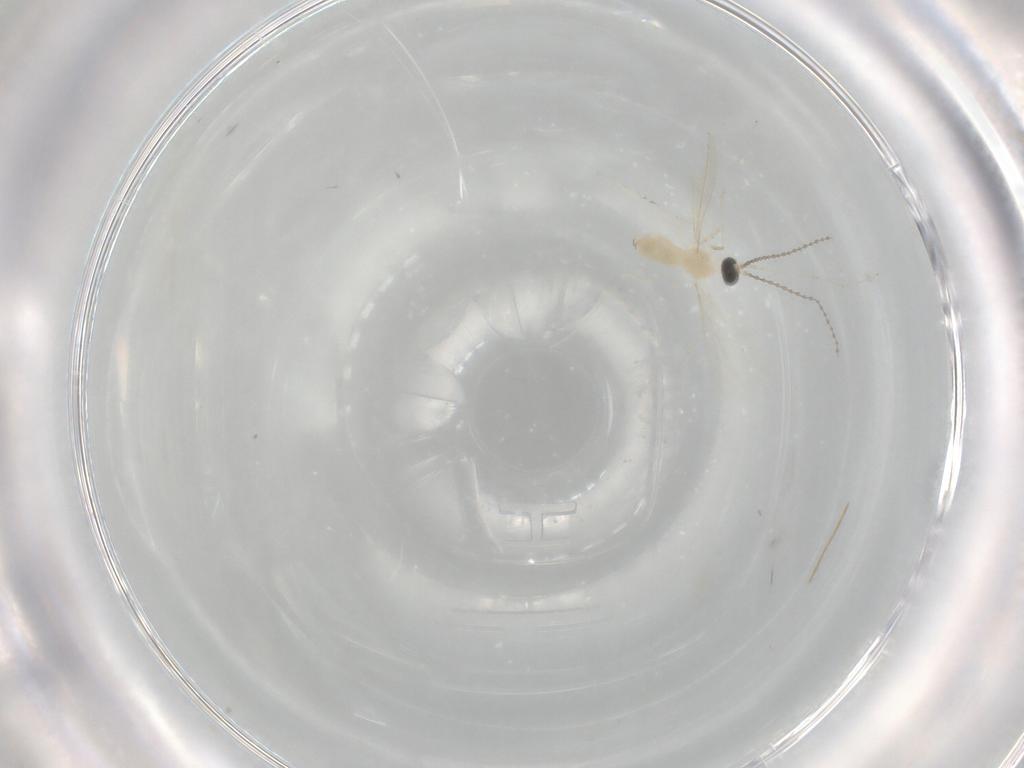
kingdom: Animalia
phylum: Arthropoda
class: Insecta
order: Diptera
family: Cecidomyiidae
